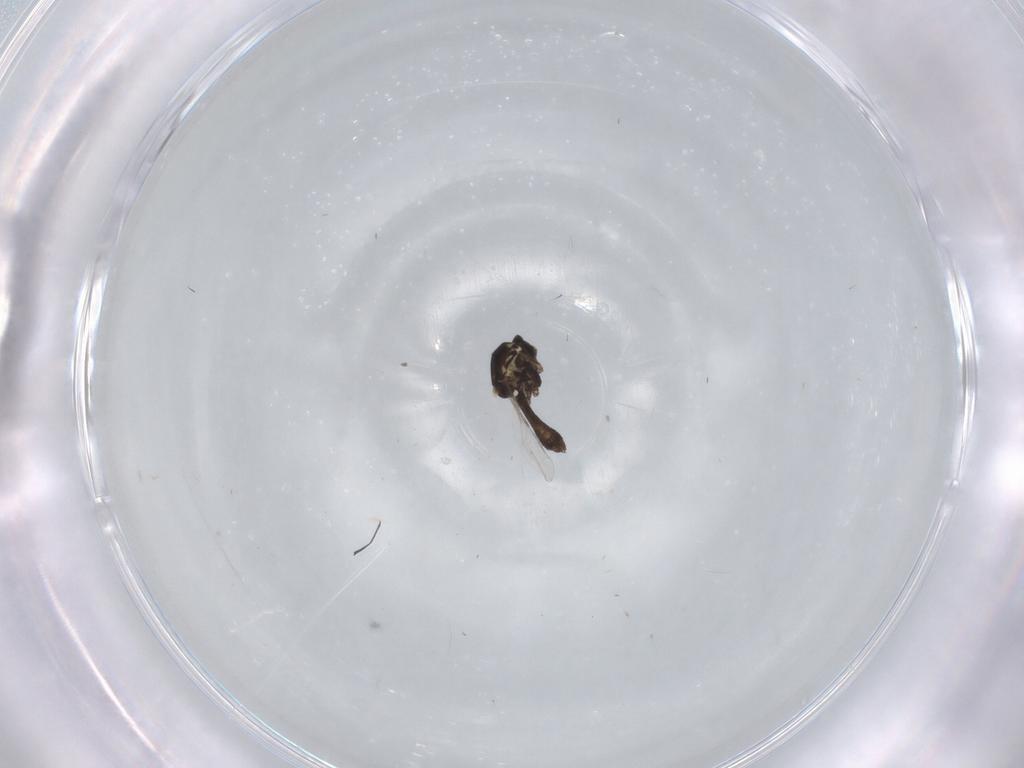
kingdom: Animalia
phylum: Arthropoda
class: Insecta
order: Diptera
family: Ceratopogonidae
